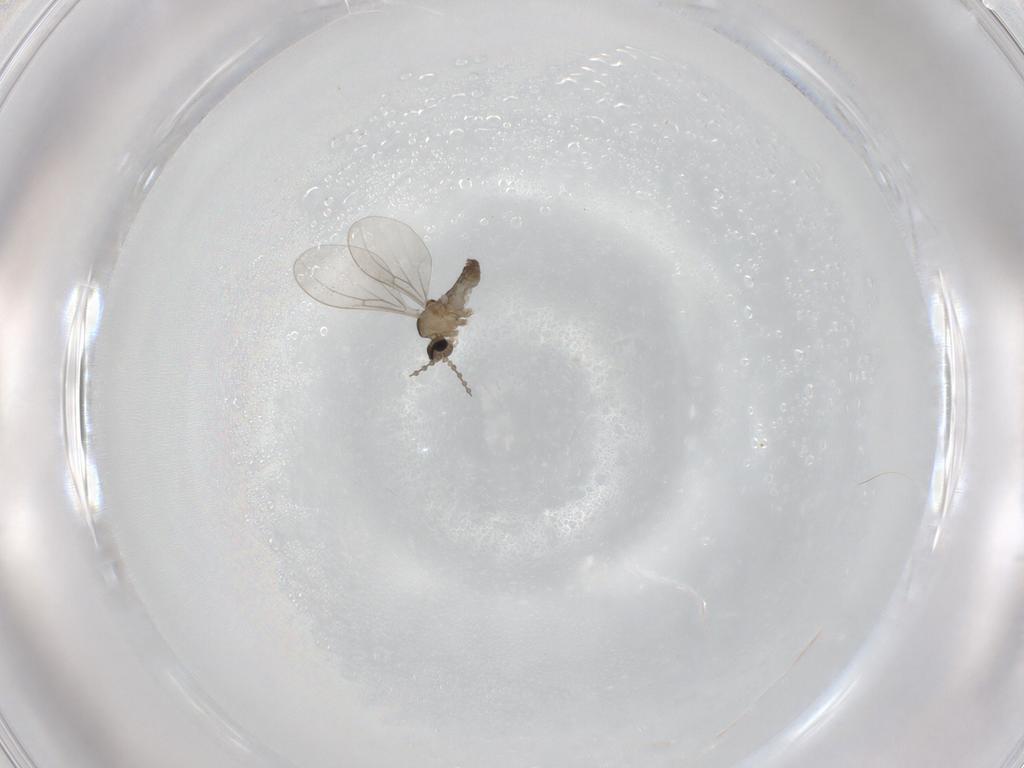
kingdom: Animalia
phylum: Arthropoda
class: Insecta
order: Diptera
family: Cecidomyiidae
